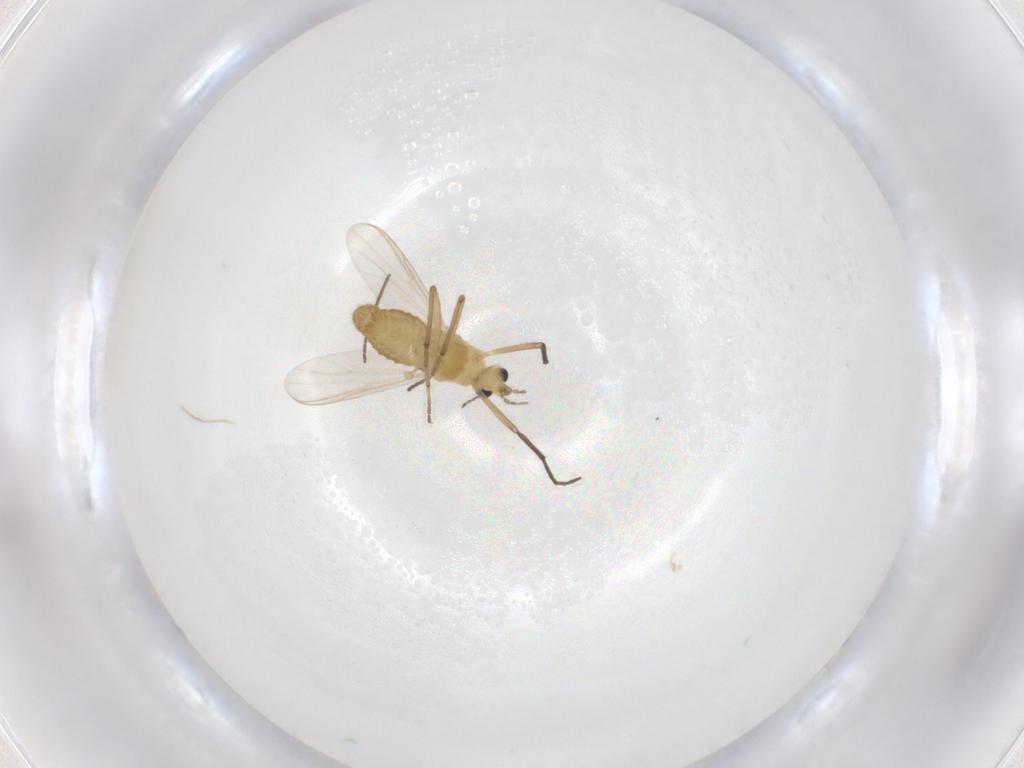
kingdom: Animalia
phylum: Arthropoda
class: Insecta
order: Diptera
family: Chironomidae
